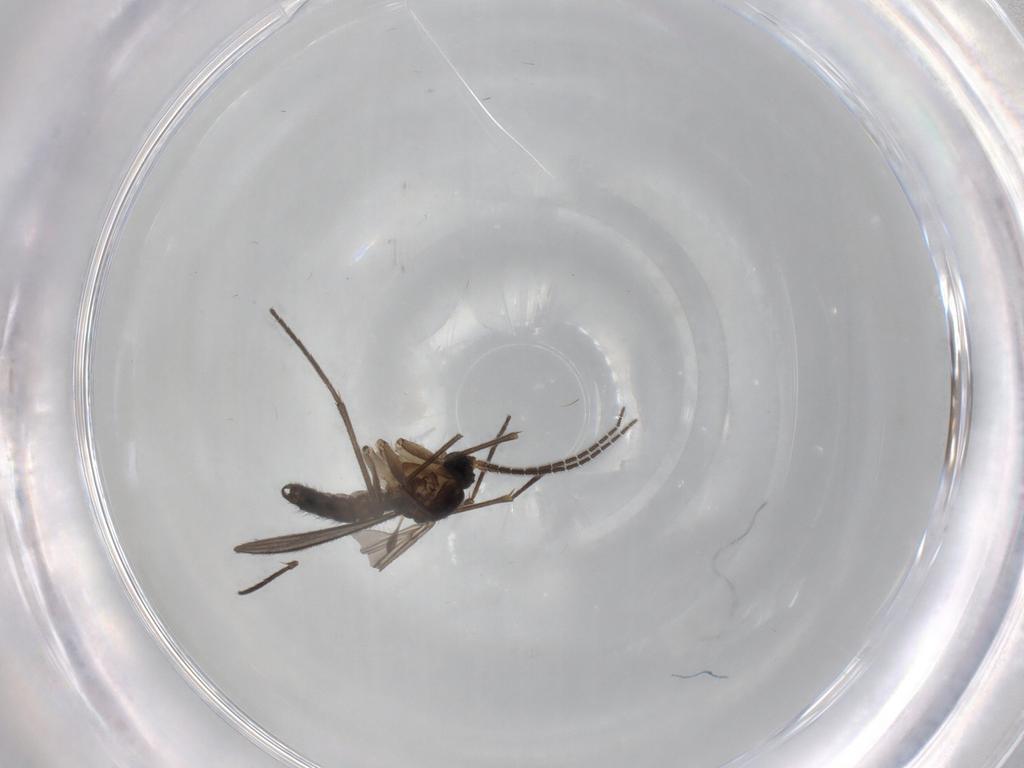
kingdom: Animalia
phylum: Arthropoda
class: Insecta
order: Diptera
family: Sciaridae
